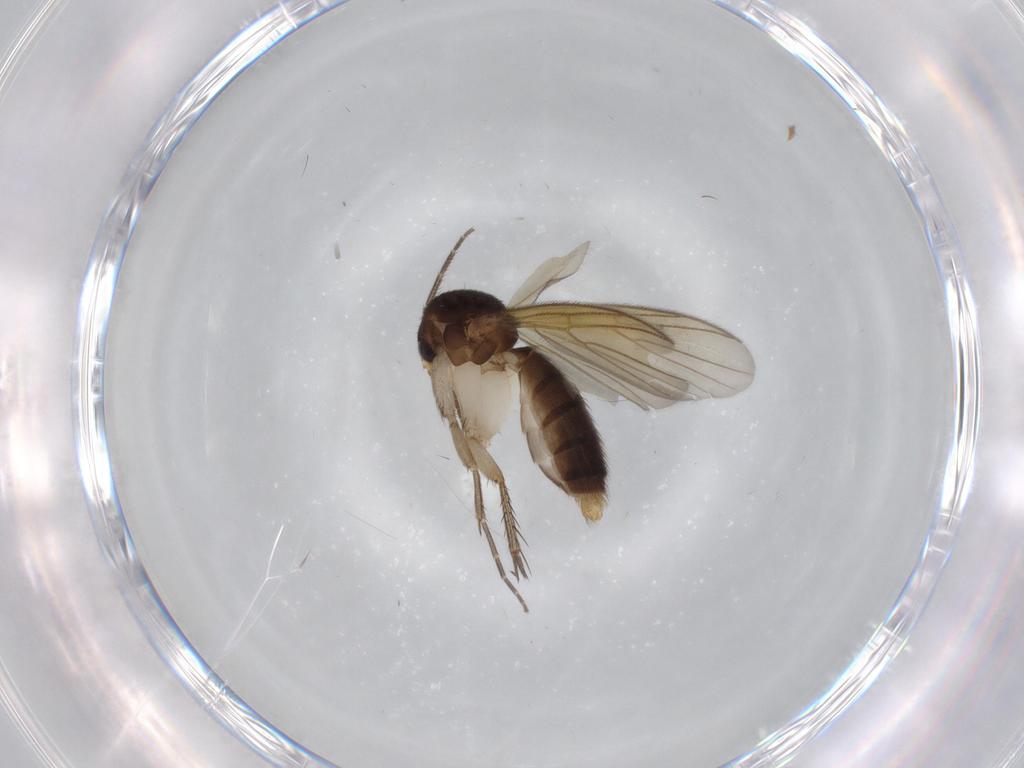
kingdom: Animalia
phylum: Arthropoda
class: Insecta
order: Diptera
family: Mycetophilidae
